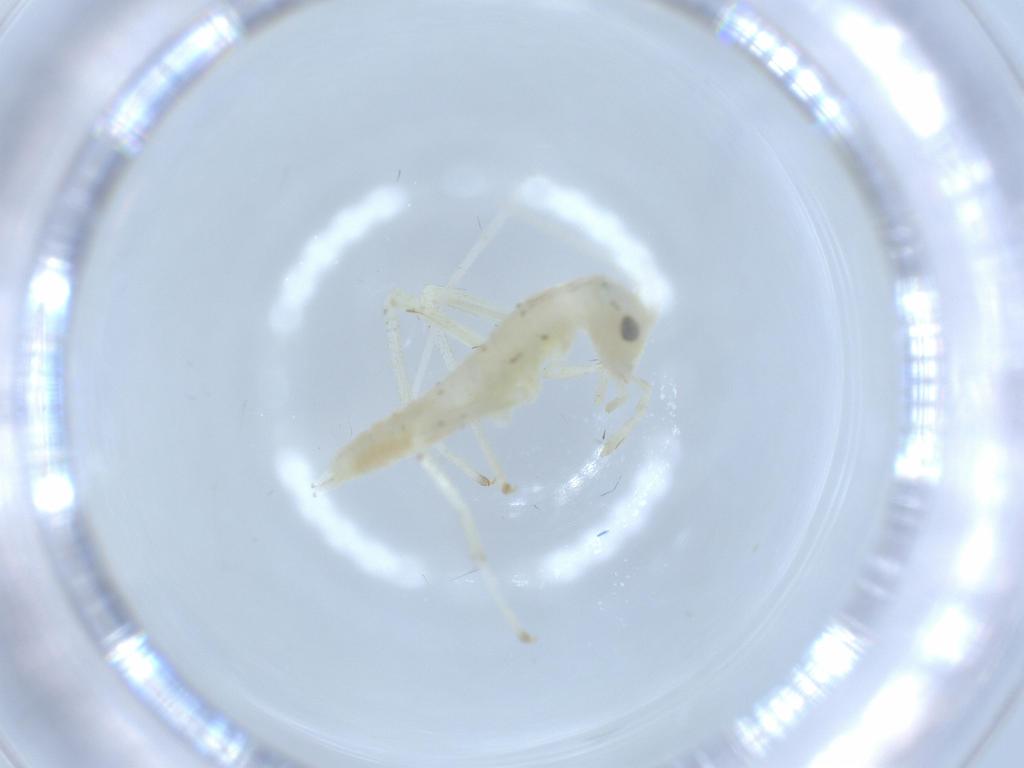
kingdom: Animalia
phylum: Arthropoda
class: Insecta
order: Orthoptera
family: Oecanthidae
